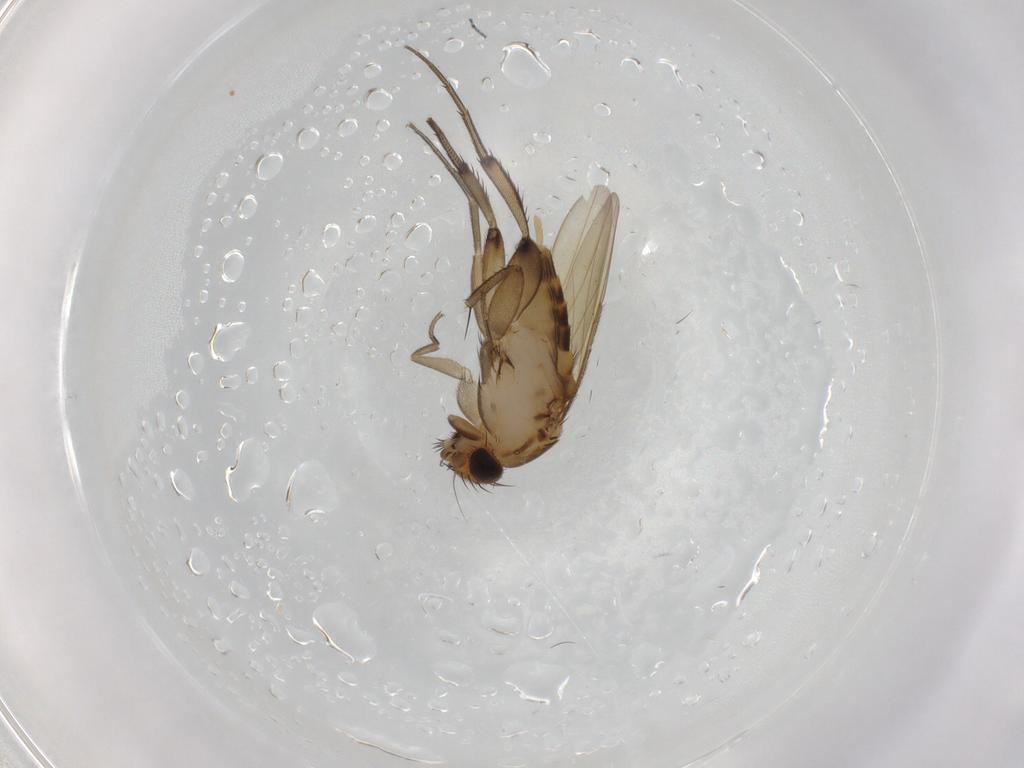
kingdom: Animalia
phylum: Arthropoda
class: Insecta
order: Diptera
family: Phoridae
